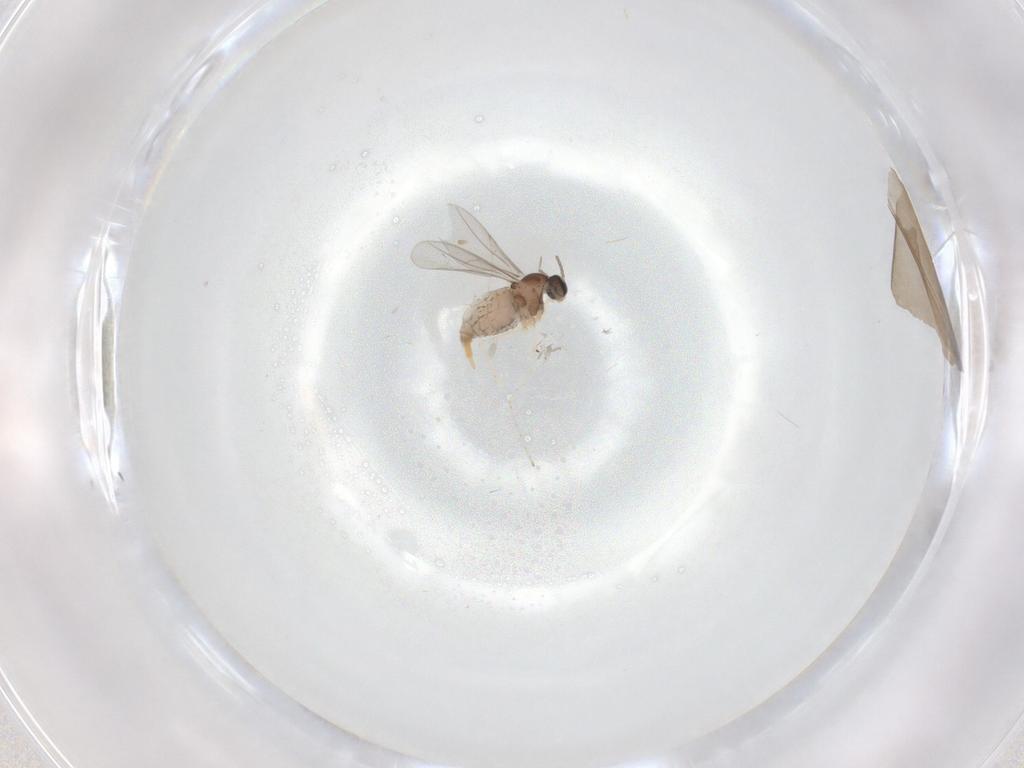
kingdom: Animalia
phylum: Arthropoda
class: Insecta
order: Diptera
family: Cecidomyiidae
